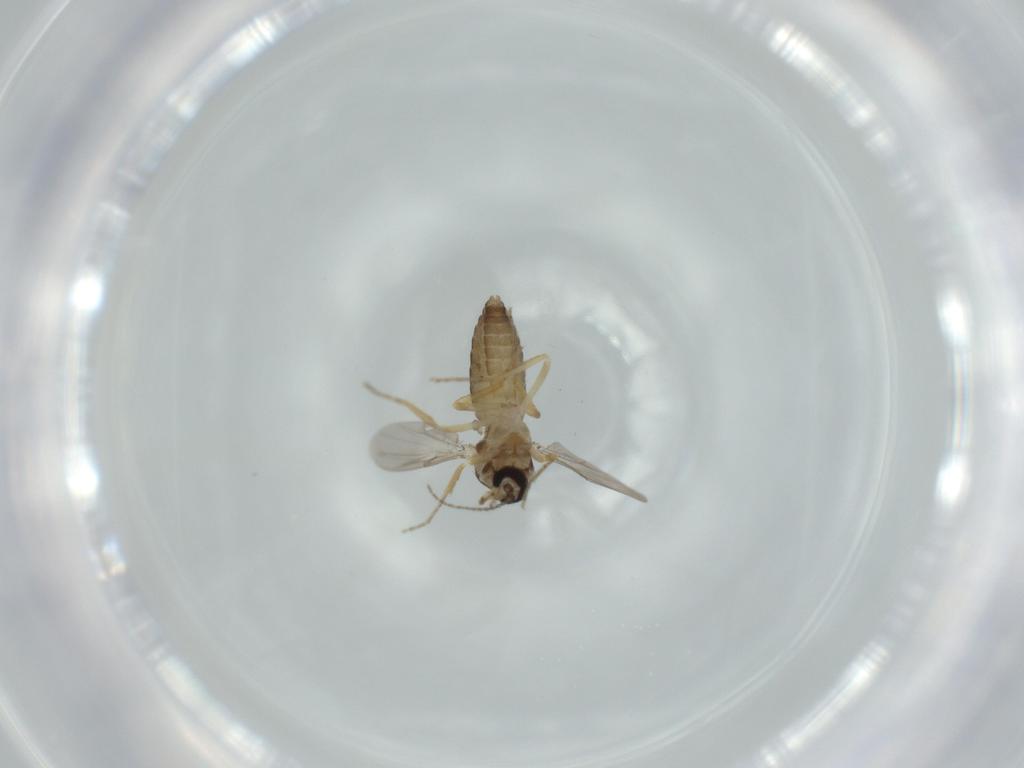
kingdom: Animalia
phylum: Arthropoda
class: Insecta
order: Diptera
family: Ceratopogonidae
